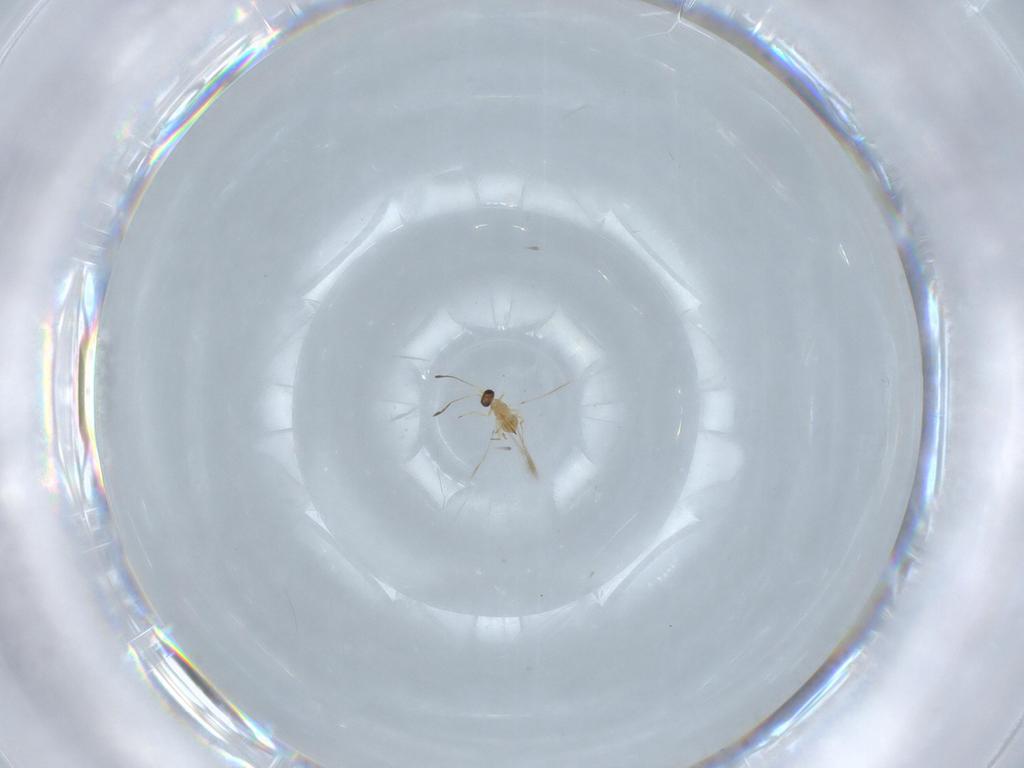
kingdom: Animalia
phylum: Arthropoda
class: Insecta
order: Hymenoptera
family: Mymaridae
